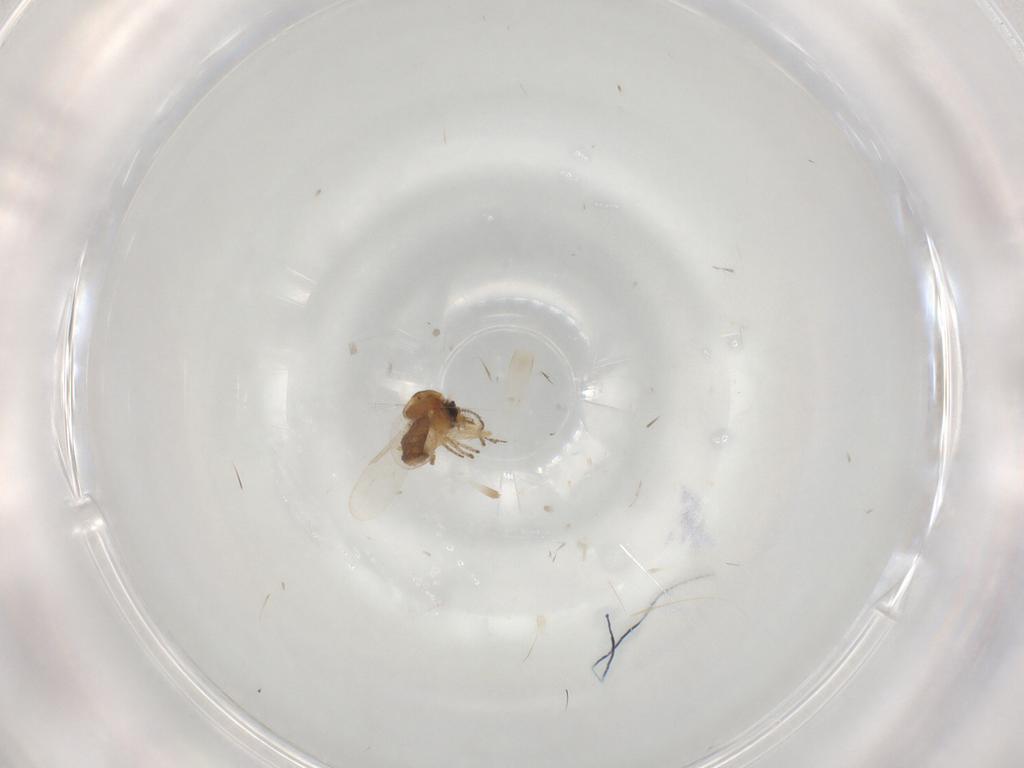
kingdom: Animalia
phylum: Arthropoda
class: Insecta
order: Diptera
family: Ceratopogonidae
